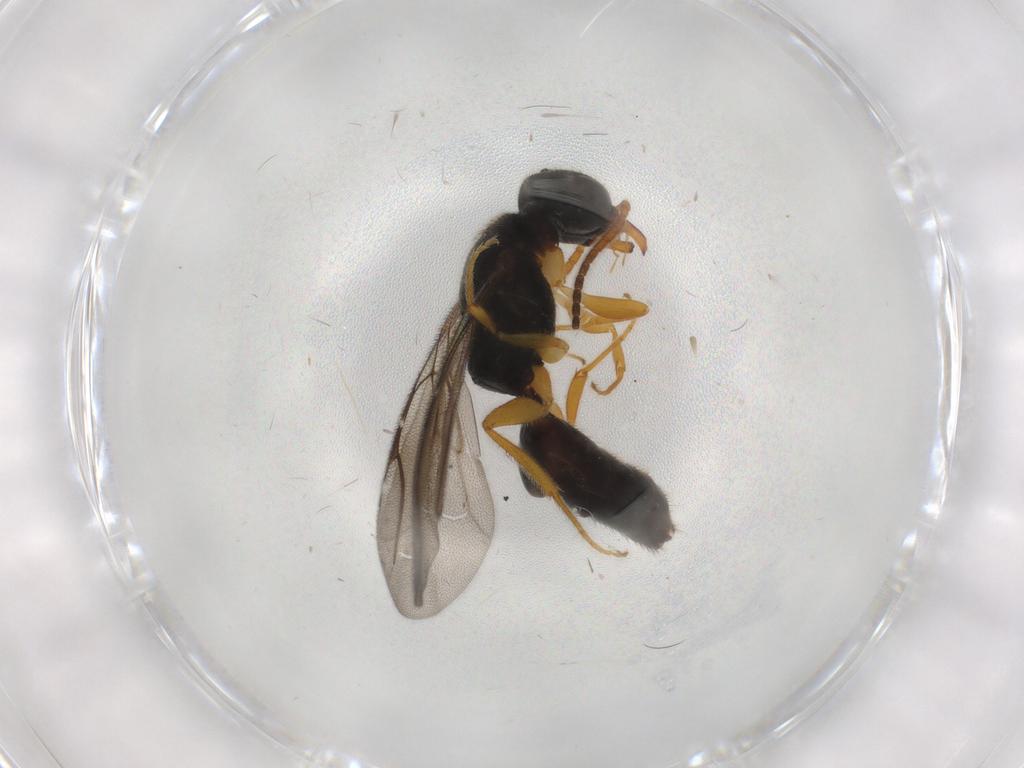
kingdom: Animalia
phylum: Arthropoda
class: Insecta
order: Hymenoptera
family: Bethylidae
